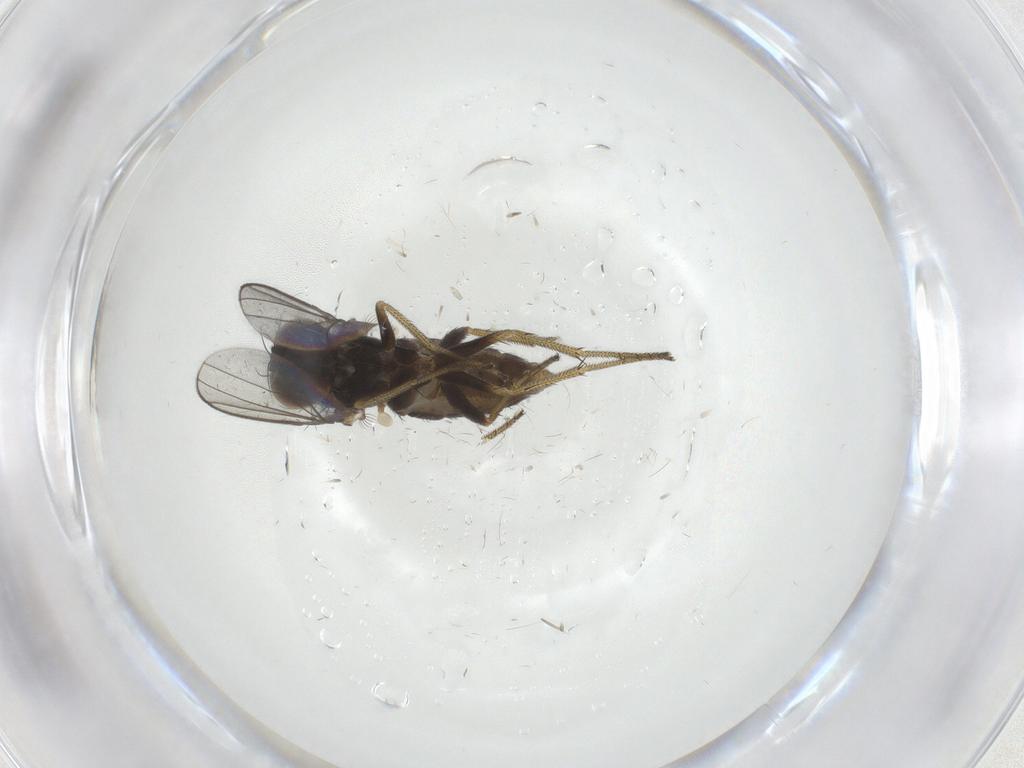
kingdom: Animalia
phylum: Arthropoda
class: Insecta
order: Diptera
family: Dolichopodidae
